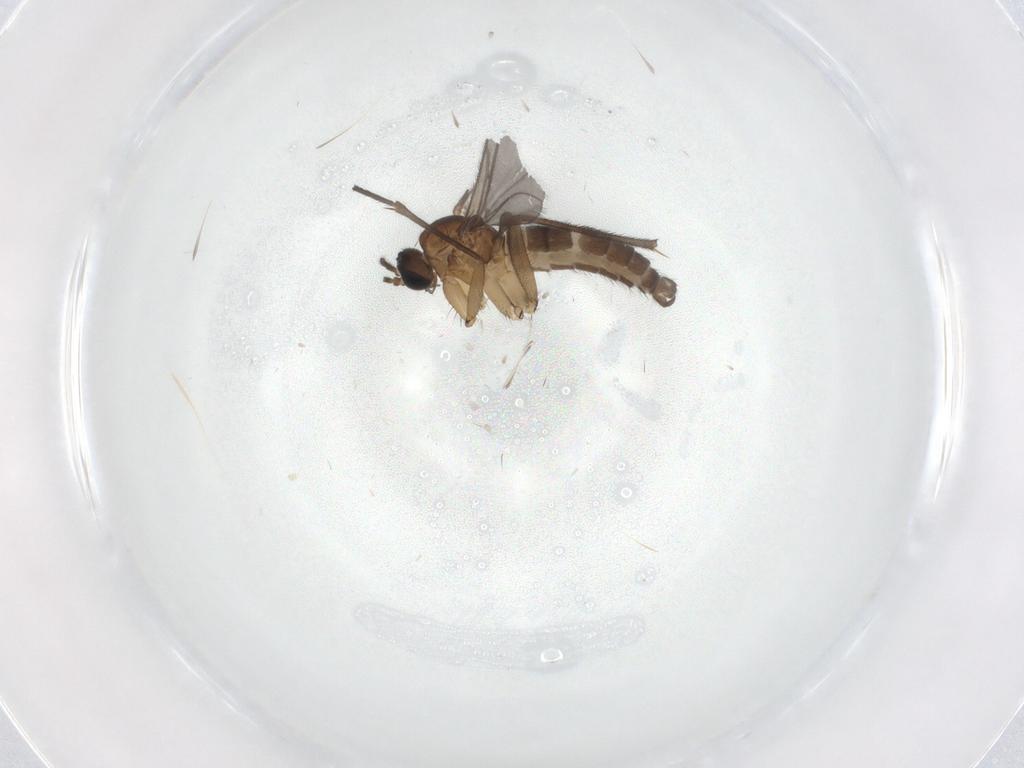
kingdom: Animalia
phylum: Arthropoda
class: Insecta
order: Diptera
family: Sciaridae
